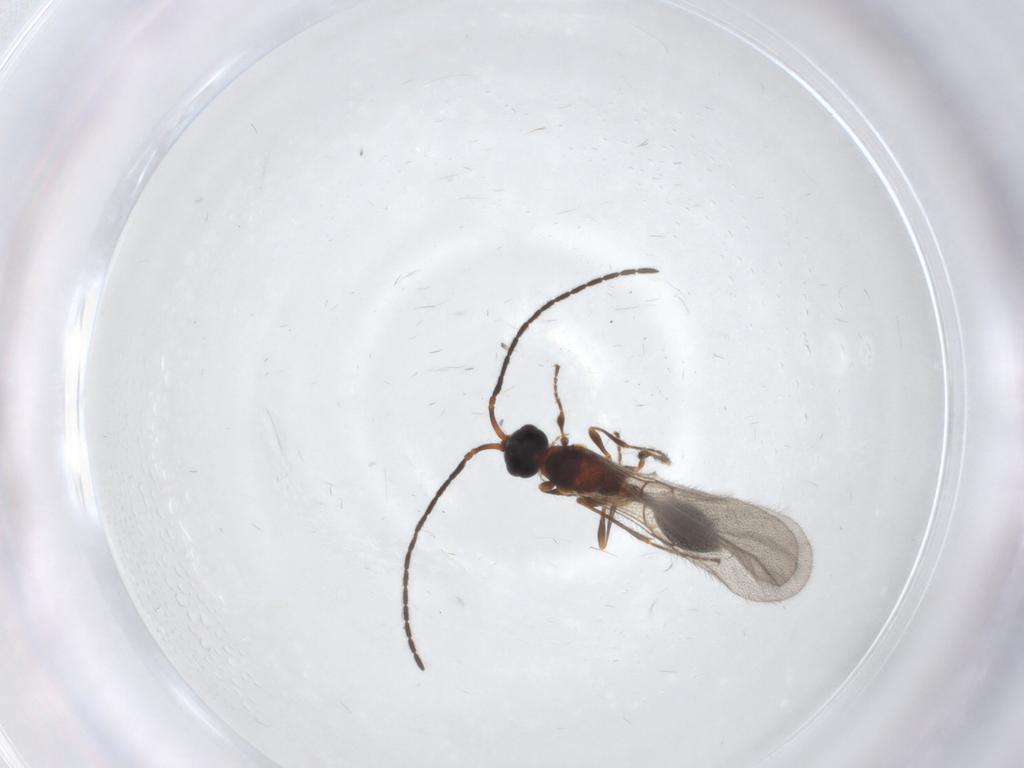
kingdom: Animalia
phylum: Arthropoda
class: Insecta
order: Hymenoptera
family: Diapriidae
